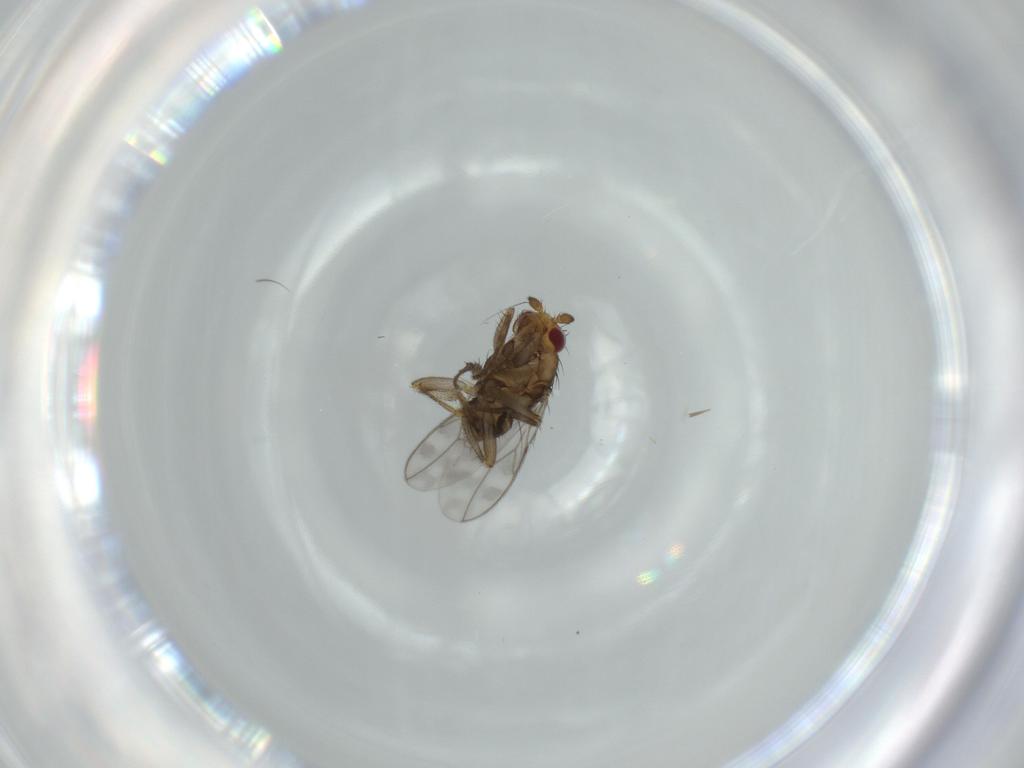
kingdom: Animalia
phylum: Arthropoda
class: Insecta
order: Diptera
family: Sphaeroceridae
